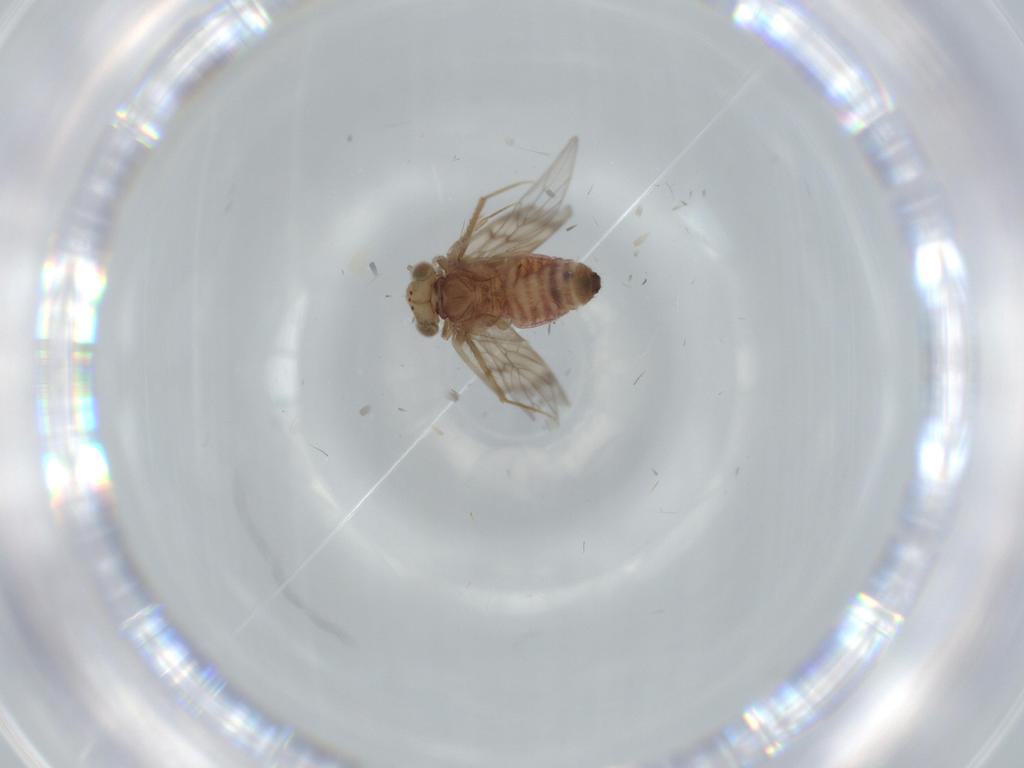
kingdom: Animalia
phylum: Arthropoda
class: Insecta
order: Psocodea
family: Lepidopsocidae
